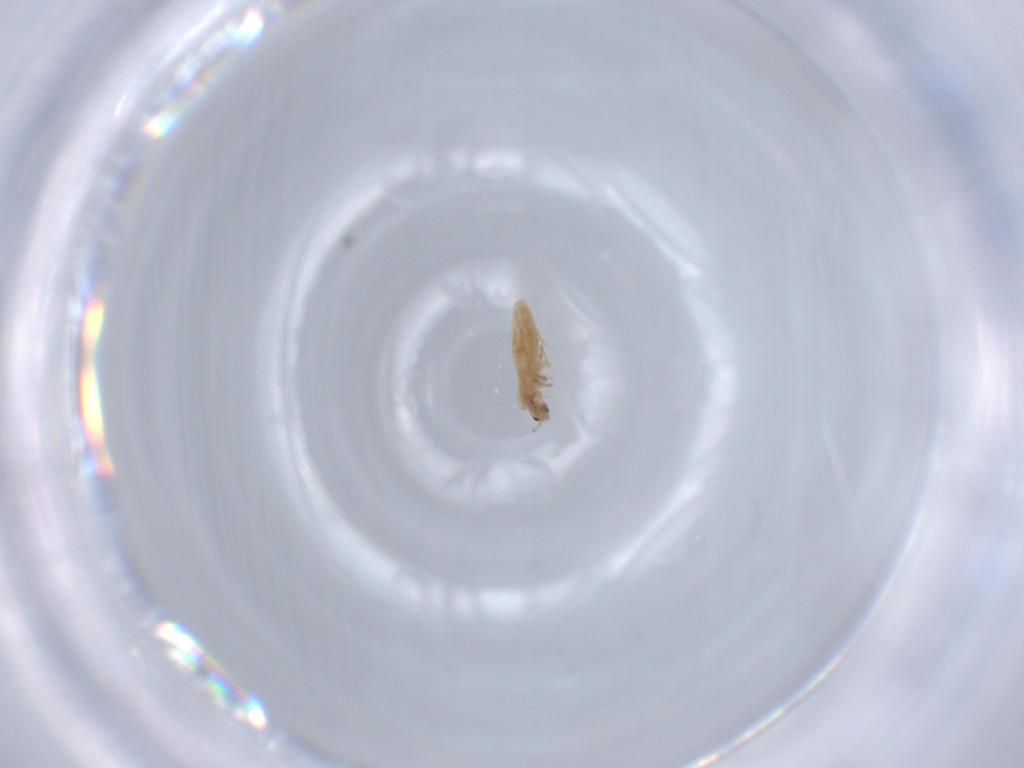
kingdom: Animalia
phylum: Arthropoda
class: Collembola
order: Entomobryomorpha
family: Entomobryidae
